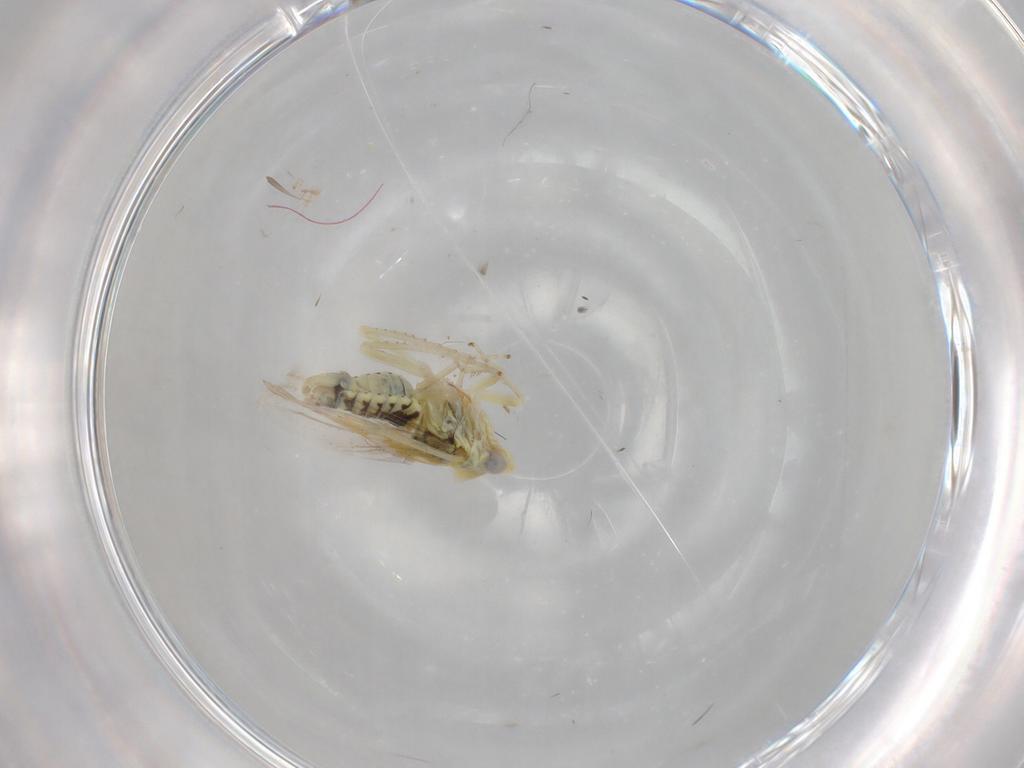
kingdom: Animalia
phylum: Arthropoda
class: Insecta
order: Hemiptera
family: Cicadellidae
